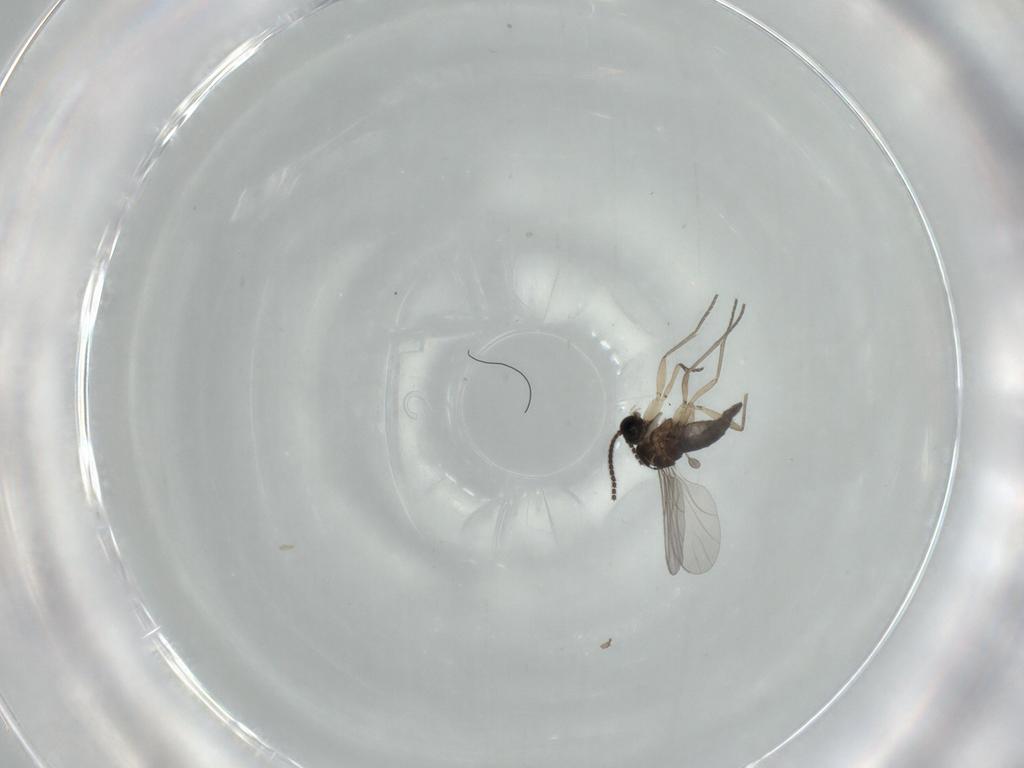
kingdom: Animalia
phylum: Arthropoda
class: Insecta
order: Diptera
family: Sciaridae
